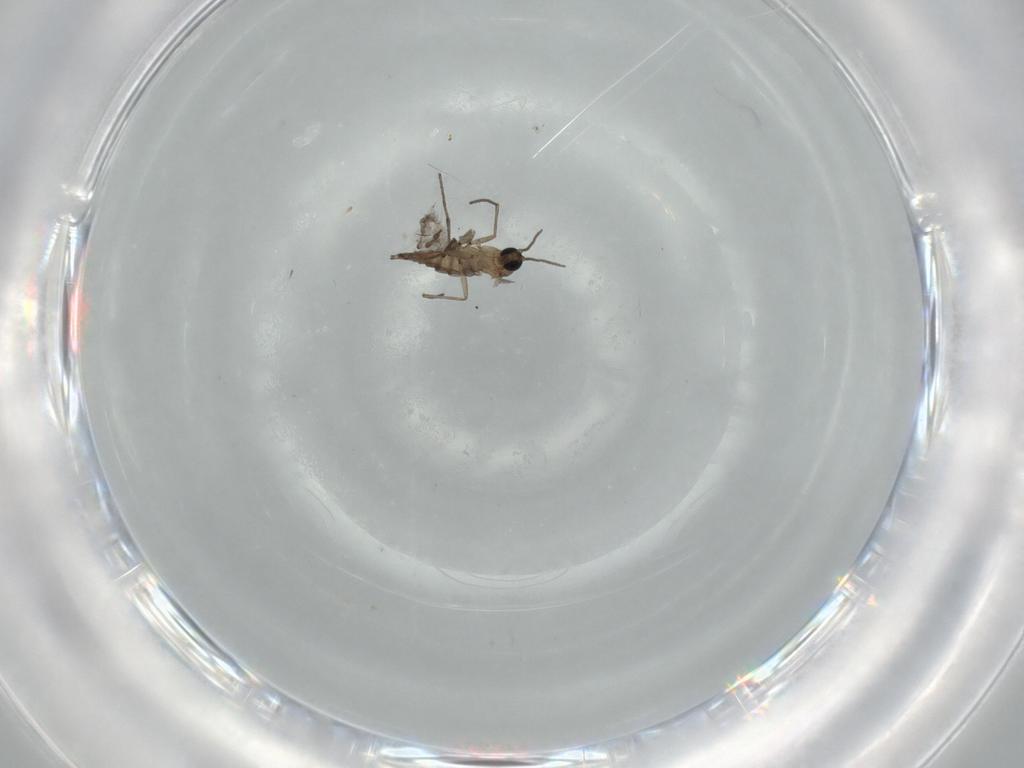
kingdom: Animalia
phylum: Arthropoda
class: Insecta
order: Diptera
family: Sciaridae
